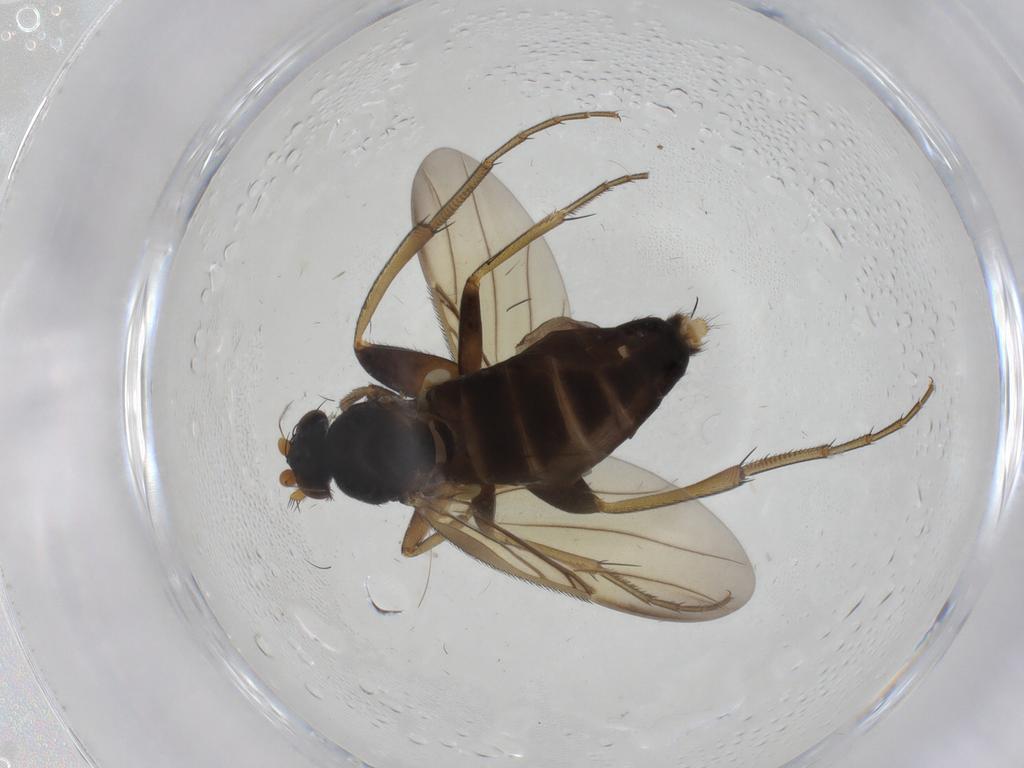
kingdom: Animalia
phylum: Arthropoda
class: Insecta
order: Diptera
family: Phoridae
